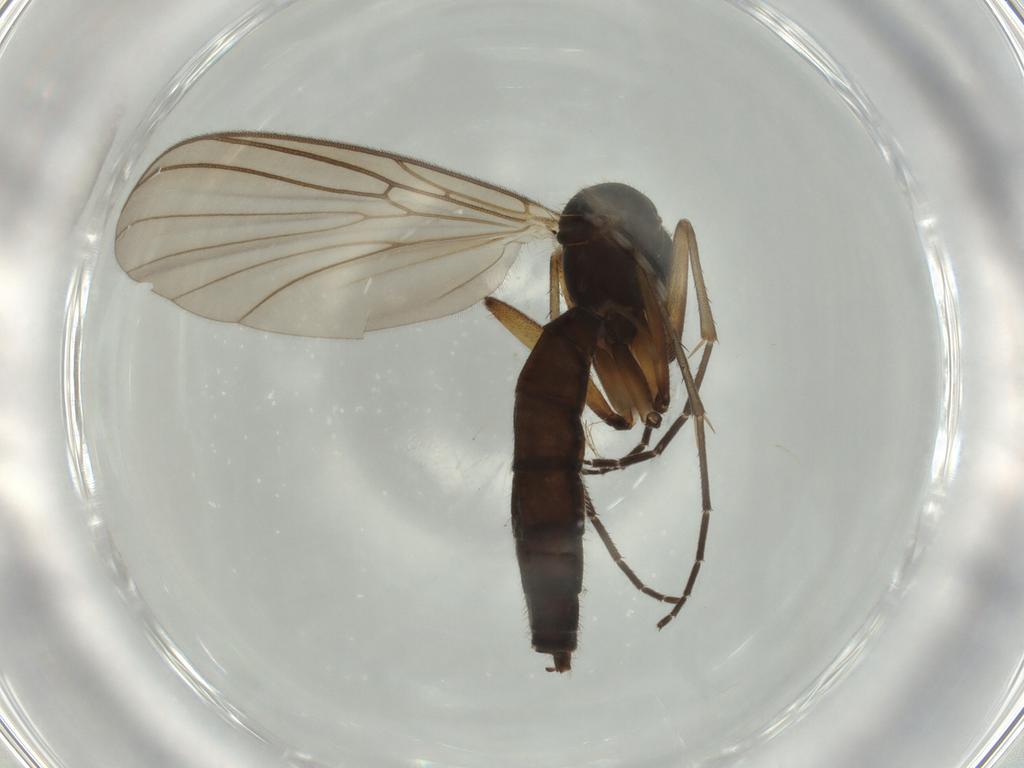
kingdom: Animalia
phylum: Arthropoda
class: Insecta
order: Diptera
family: Mycetophilidae
